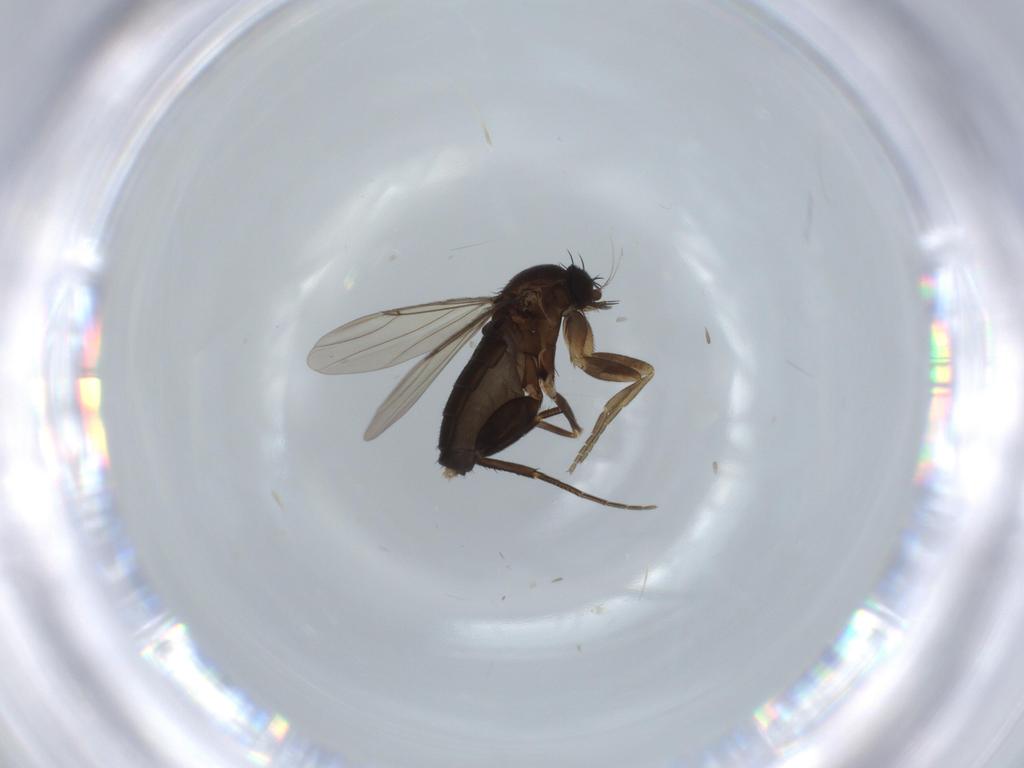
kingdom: Animalia
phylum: Arthropoda
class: Insecta
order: Diptera
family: Phoridae
